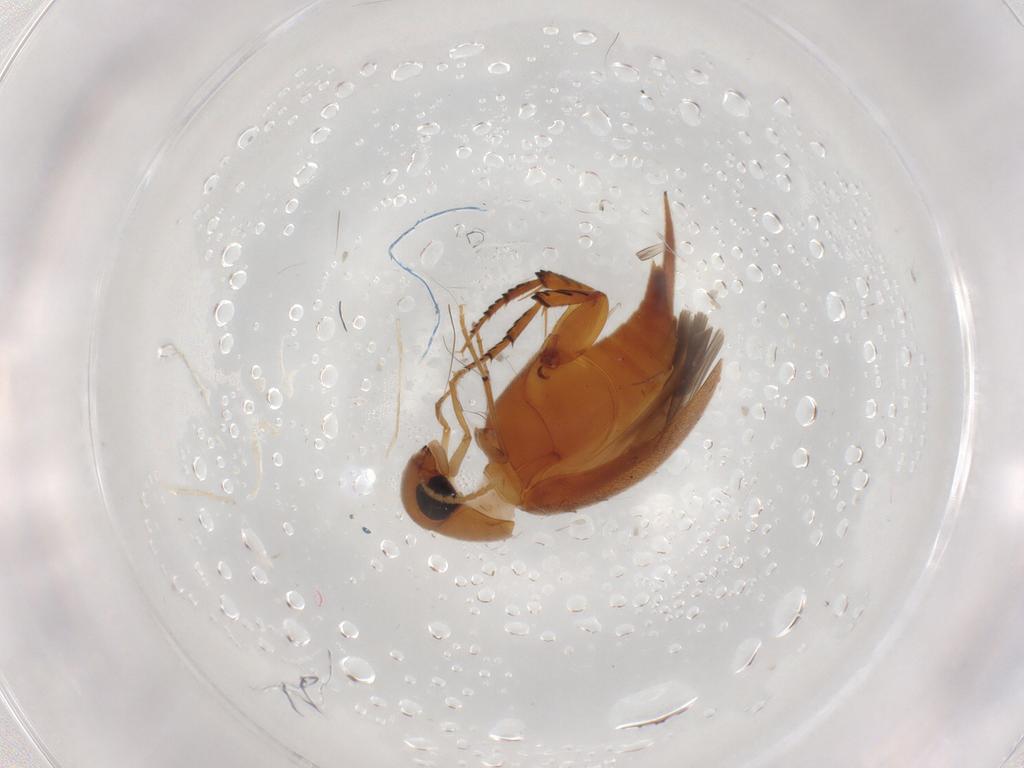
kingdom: Animalia
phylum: Arthropoda
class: Insecta
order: Coleoptera
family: Mordellidae
